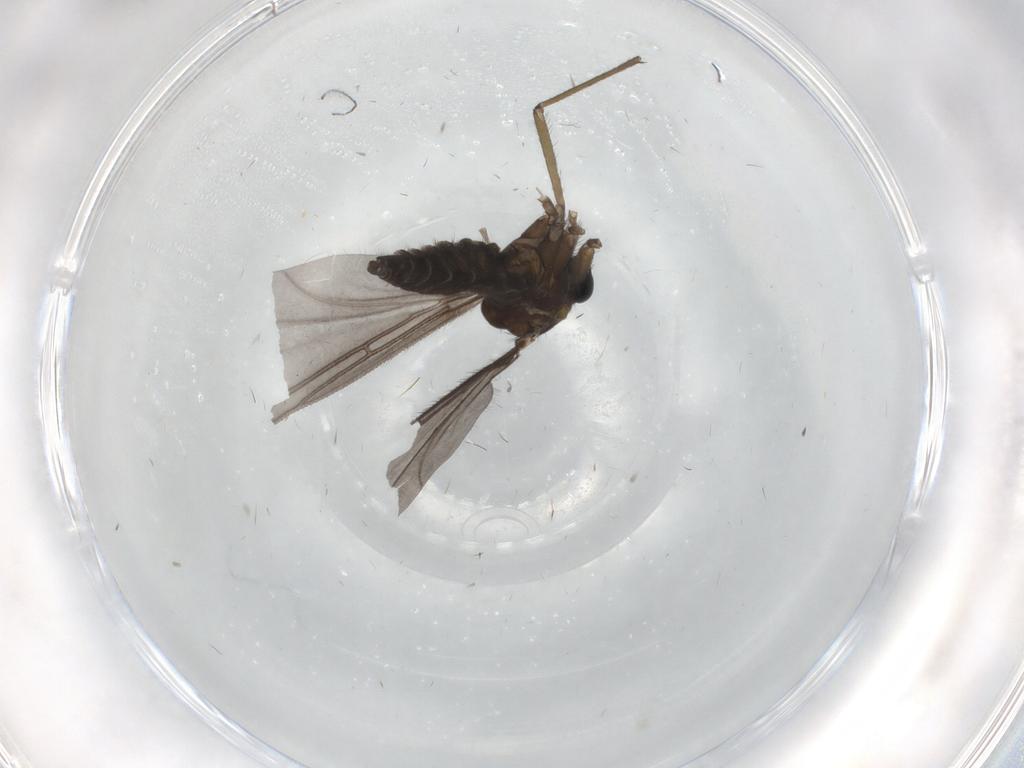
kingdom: Animalia
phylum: Arthropoda
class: Insecta
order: Diptera
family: Sciaridae
